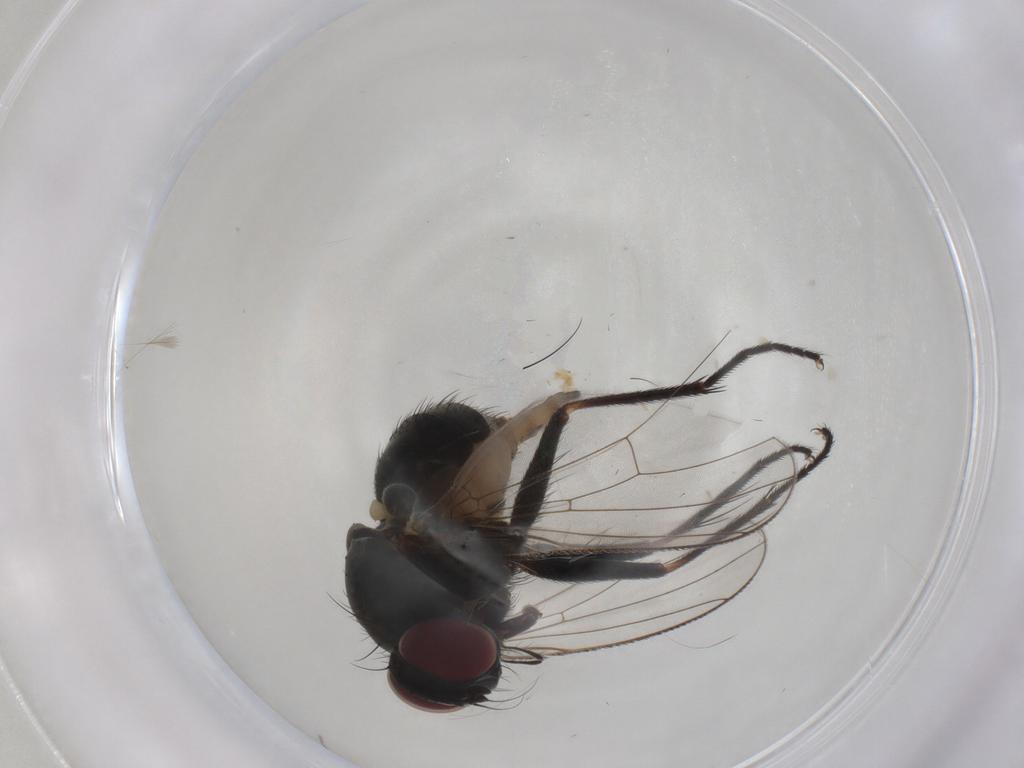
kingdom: Animalia
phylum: Arthropoda
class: Insecta
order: Diptera
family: Muscidae
